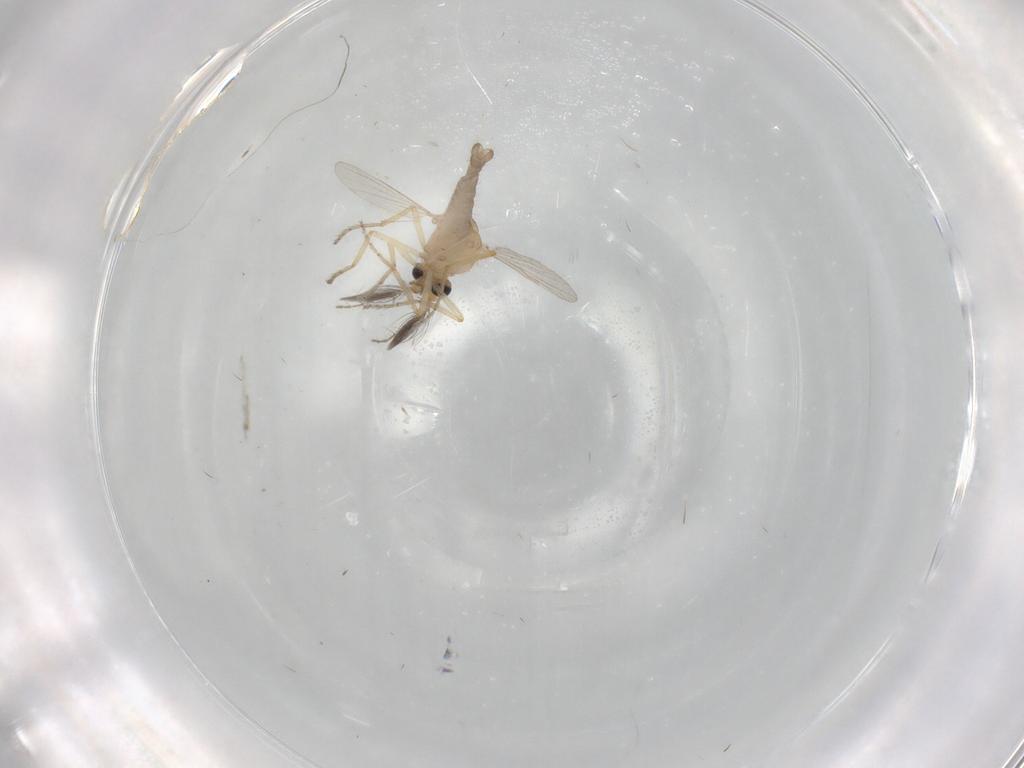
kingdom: Animalia
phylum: Arthropoda
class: Insecta
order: Diptera
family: Ceratopogonidae
